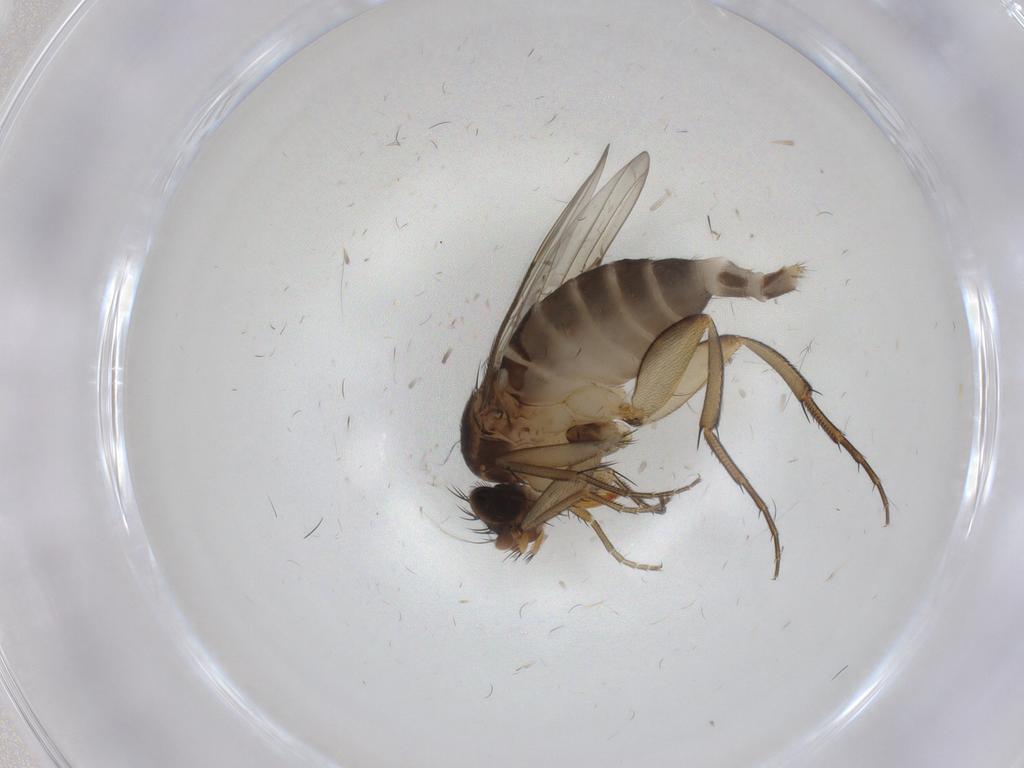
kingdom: Animalia
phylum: Arthropoda
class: Insecta
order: Diptera
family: Phoridae
